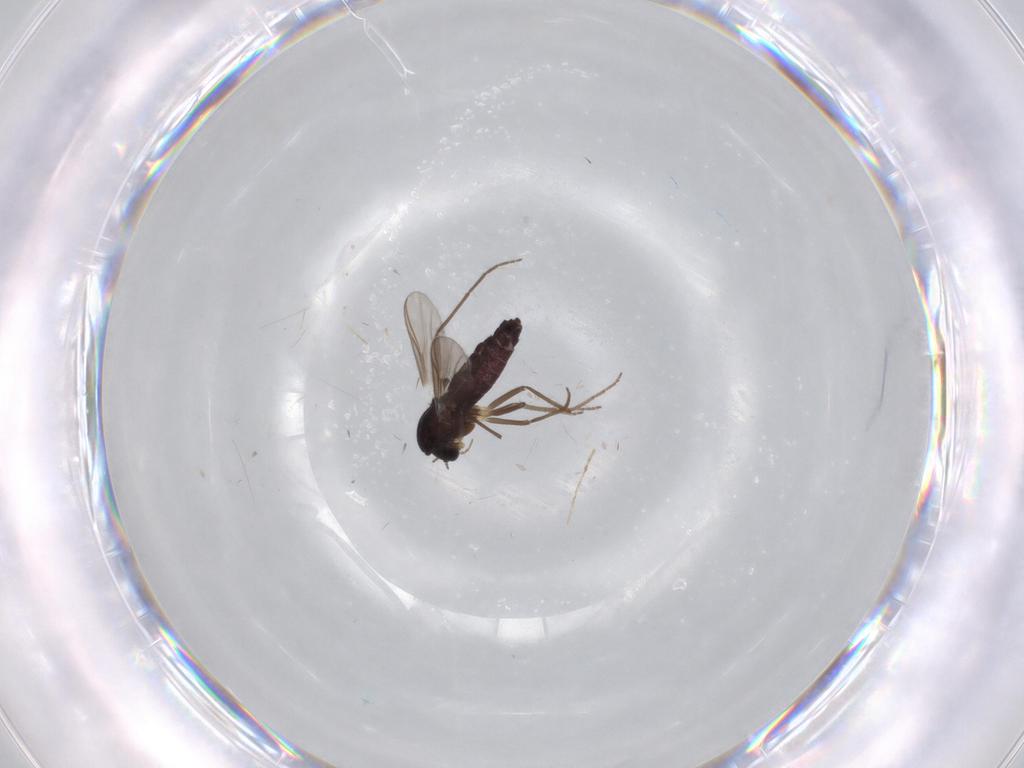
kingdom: Animalia
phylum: Arthropoda
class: Insecta
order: Diptera
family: Chironomidae
